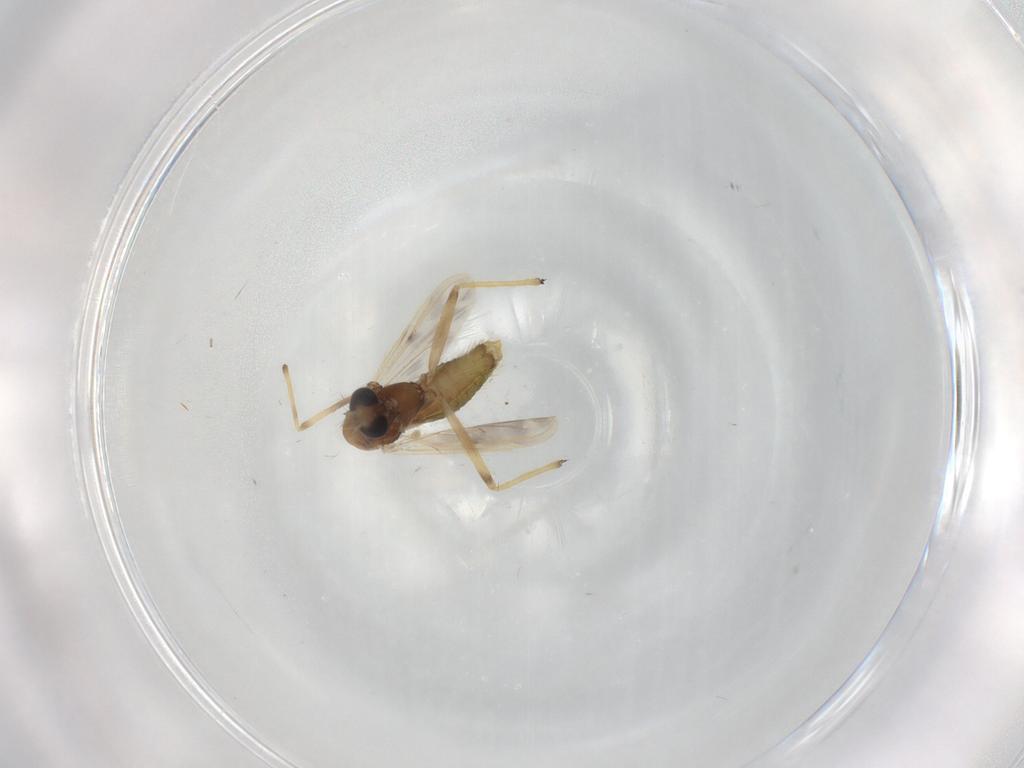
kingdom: Animalia
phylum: Arthropoda
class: Insecta
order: Diptera
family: Chironomidae
